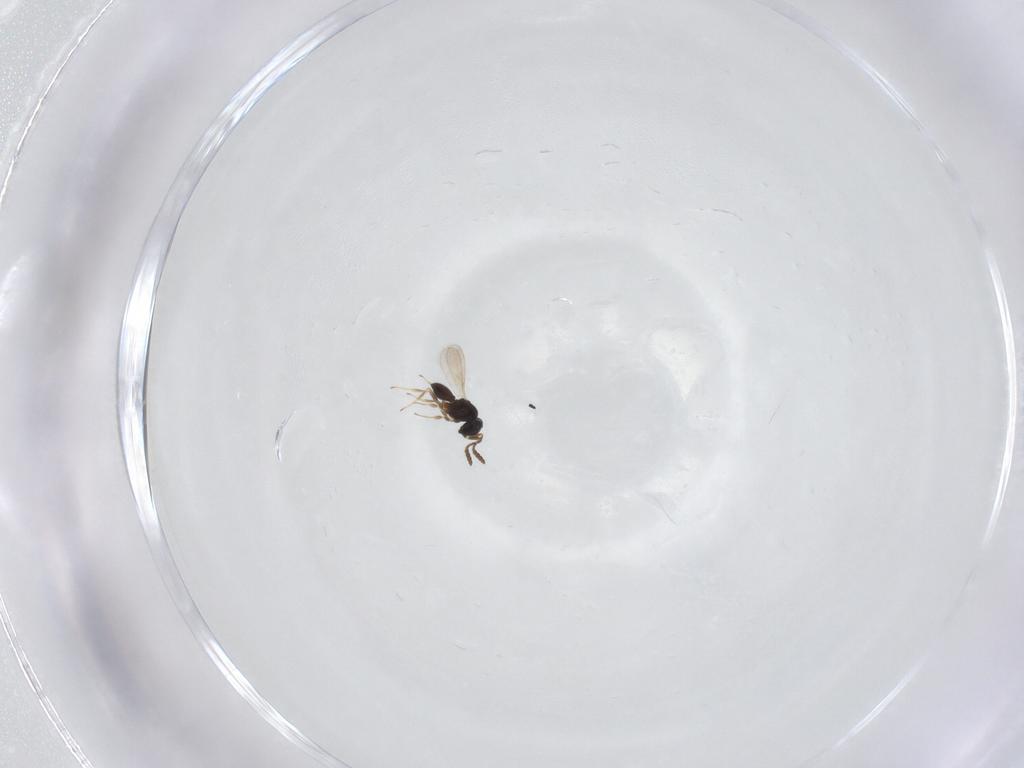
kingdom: Animalia
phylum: Arthropoda
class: Insecta
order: Hymenoptera
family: Scelionidae
